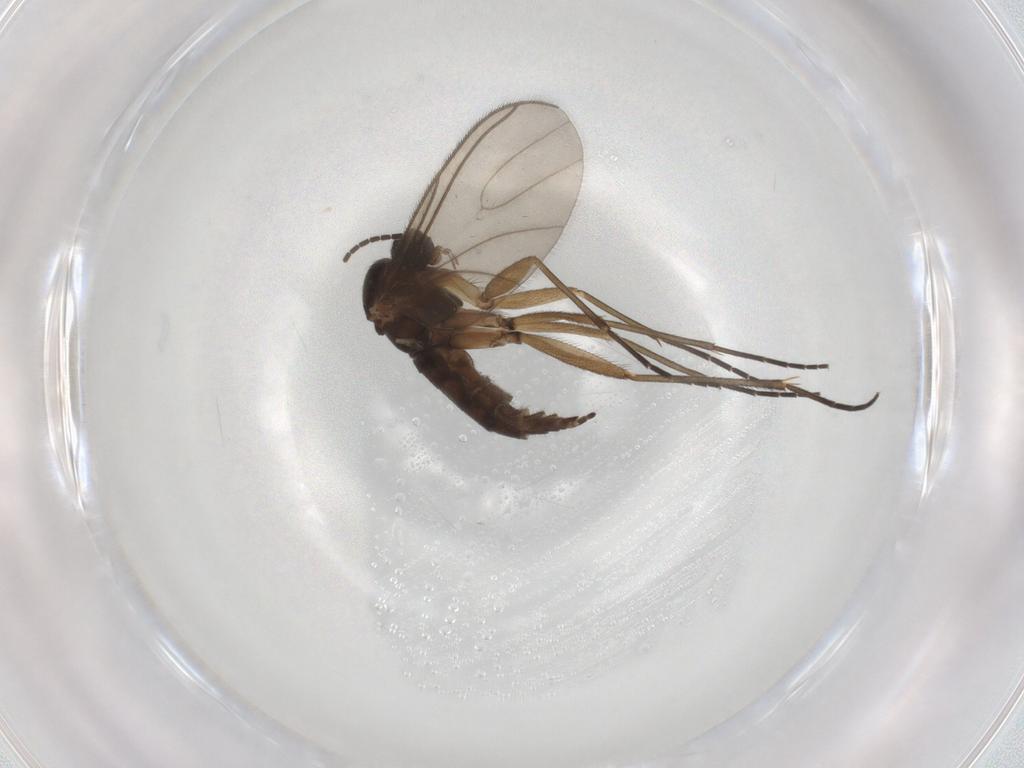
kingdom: Animalia
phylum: Arthropoda
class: Insecta
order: Diptera
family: Sciaridae
